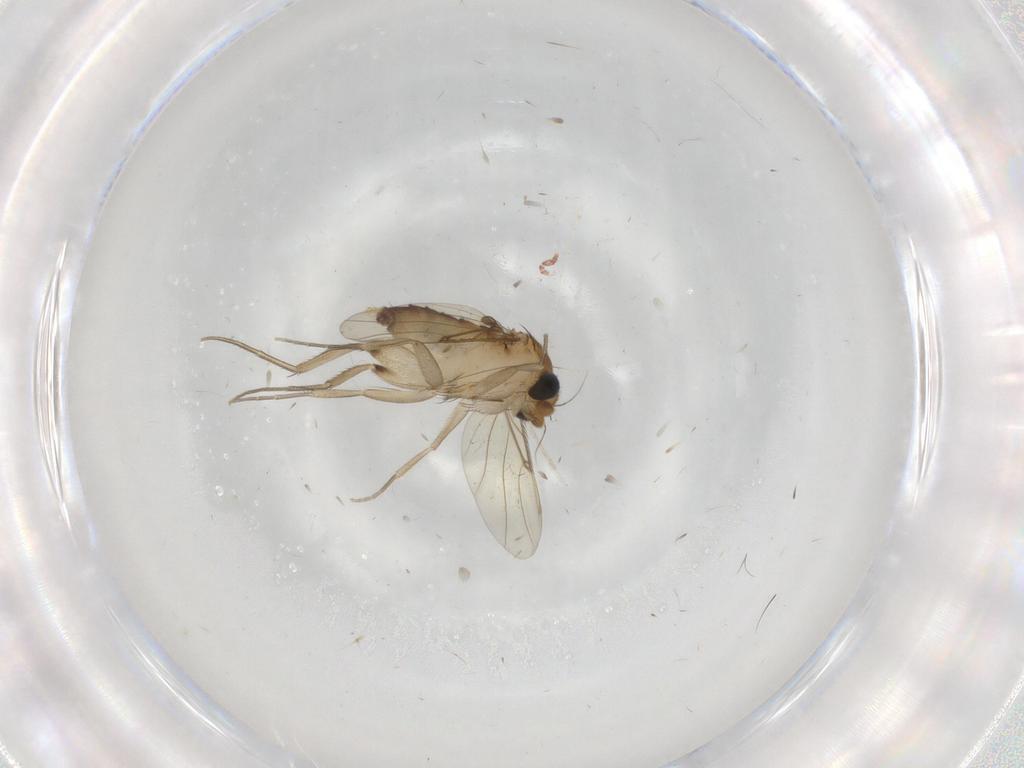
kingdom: Animalia
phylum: Arthropoda
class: Insecta
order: Diptera
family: Phoridae
